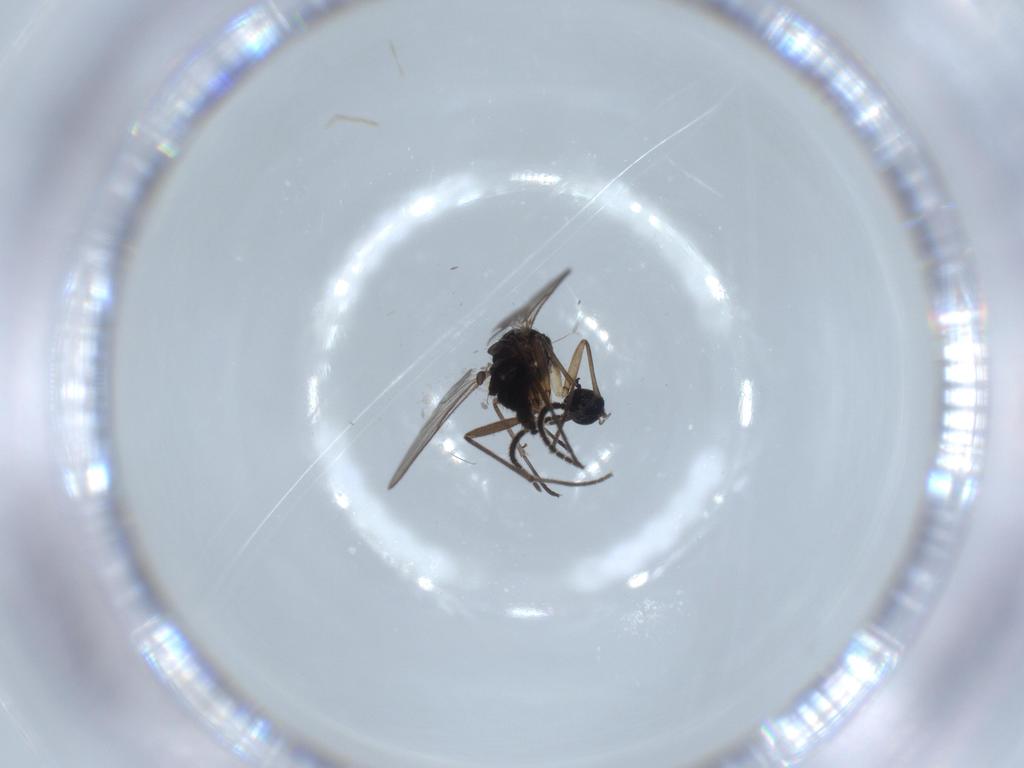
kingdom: Animalia
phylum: Arthropoda
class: Insecta
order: Diptera
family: Sciaridae
